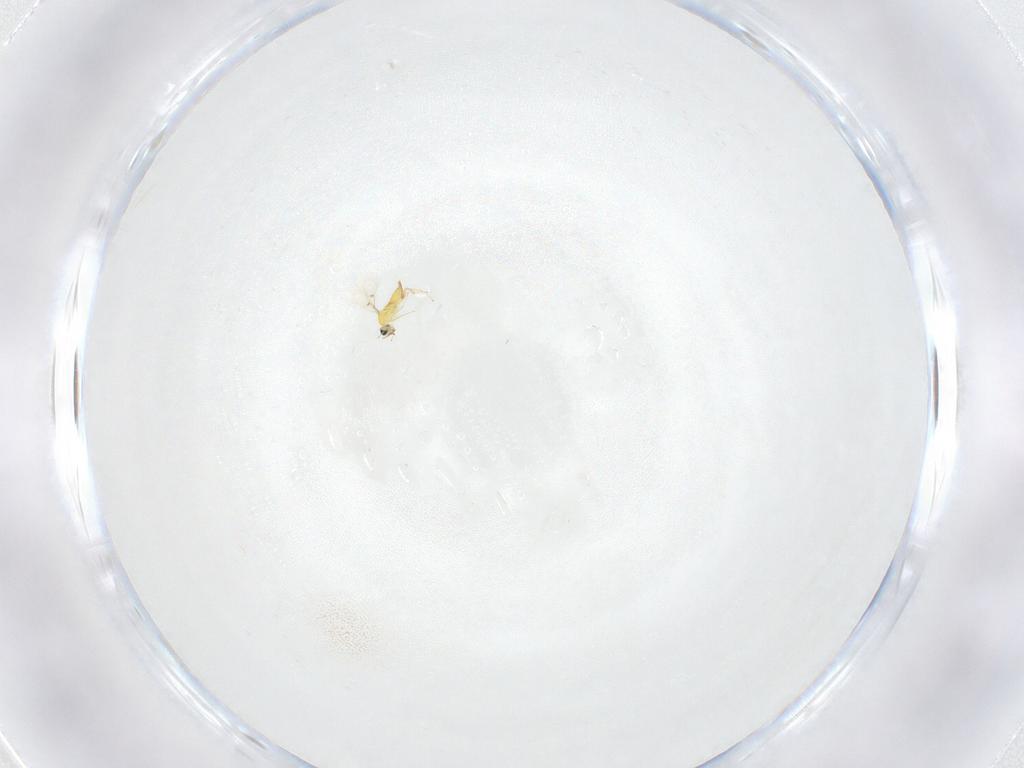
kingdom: Animalia
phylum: Arthropoda
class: Insecta
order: Hymenoptera
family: Trichogrammatidae
